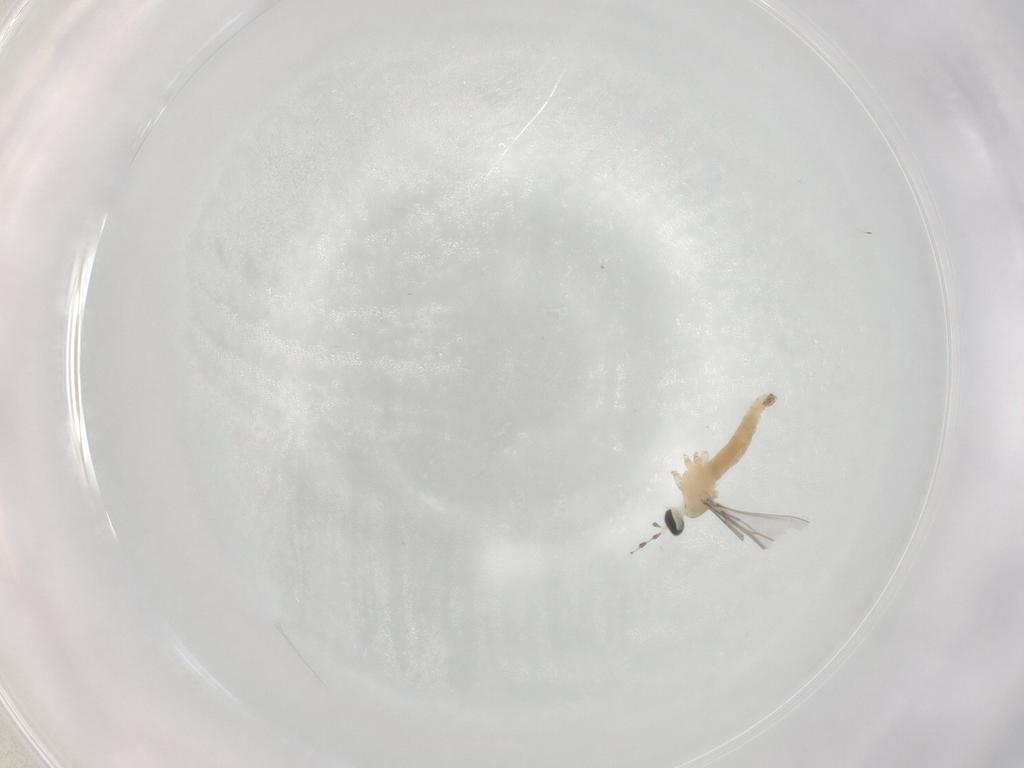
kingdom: Animalia
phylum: Arthropoda
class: Insecta
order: Diptera
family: Cecidomyiidae
